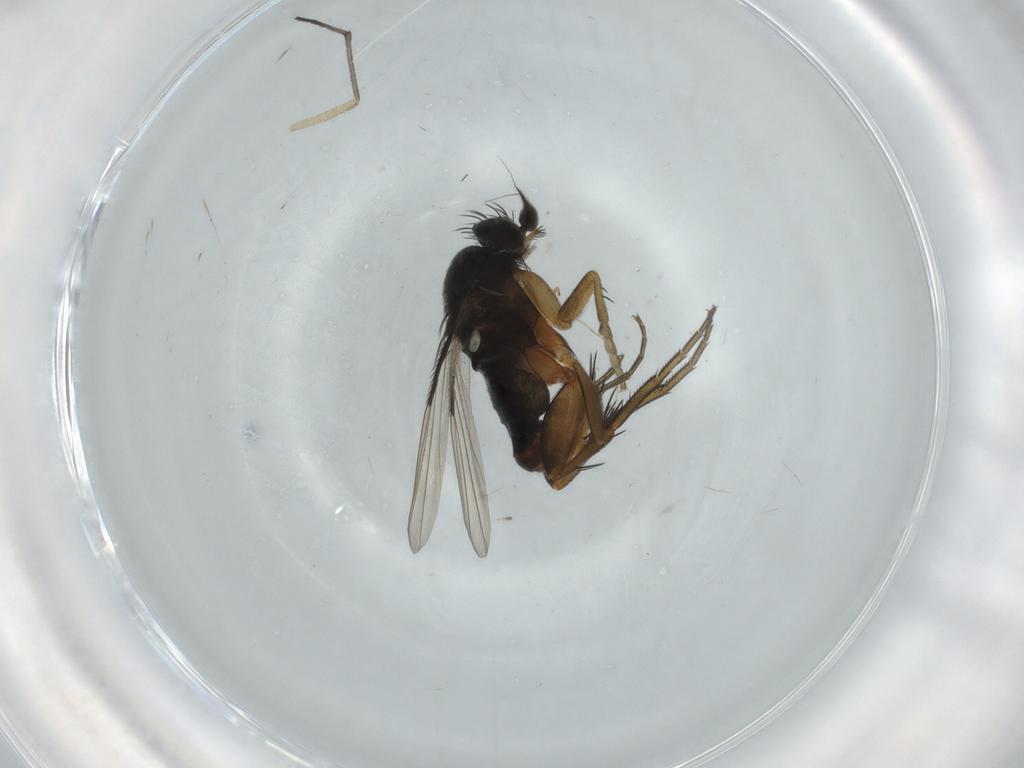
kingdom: Animalia
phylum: Arthropoda
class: Insecta
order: Diptera
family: Phoridae
